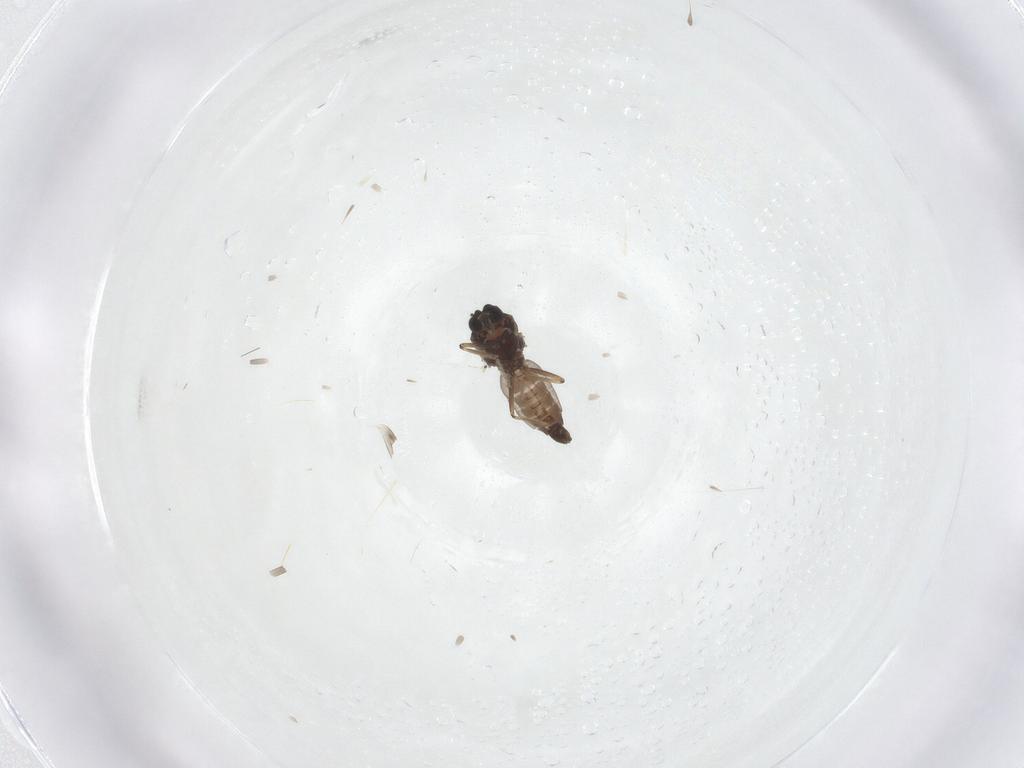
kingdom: Animalia
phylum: Arthropoda
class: Insecta
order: Diptera
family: Ceratopogonidae
